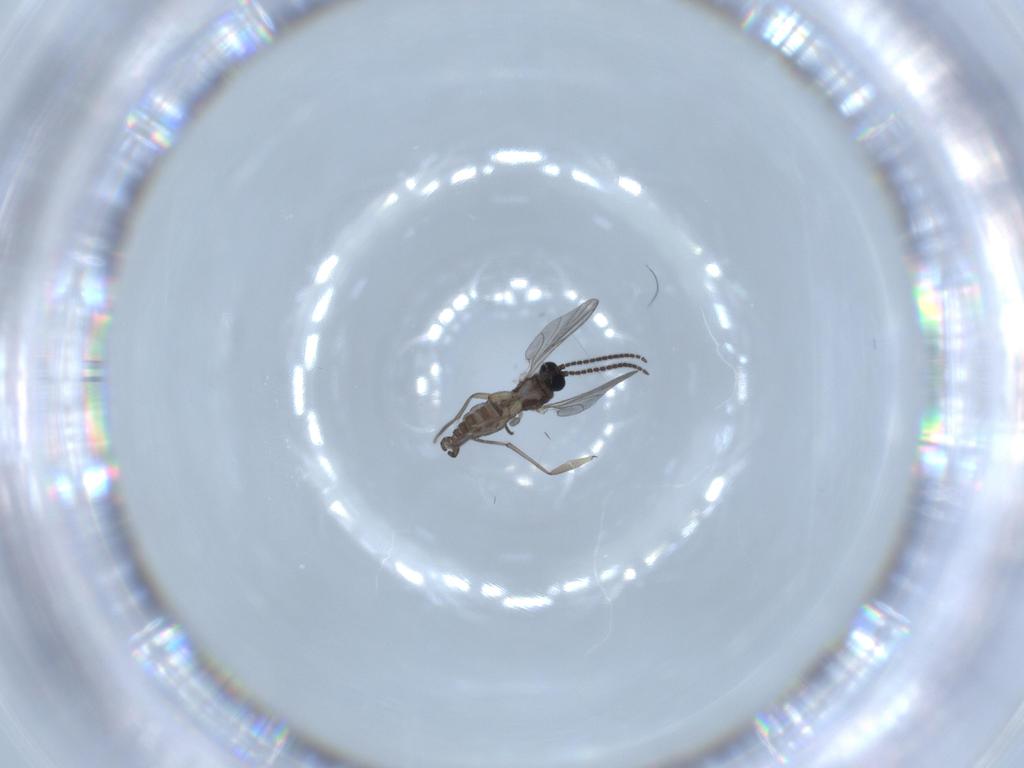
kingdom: Animalia
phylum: Arthropoda
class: Insecta
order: Diptera
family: Sciaridae
